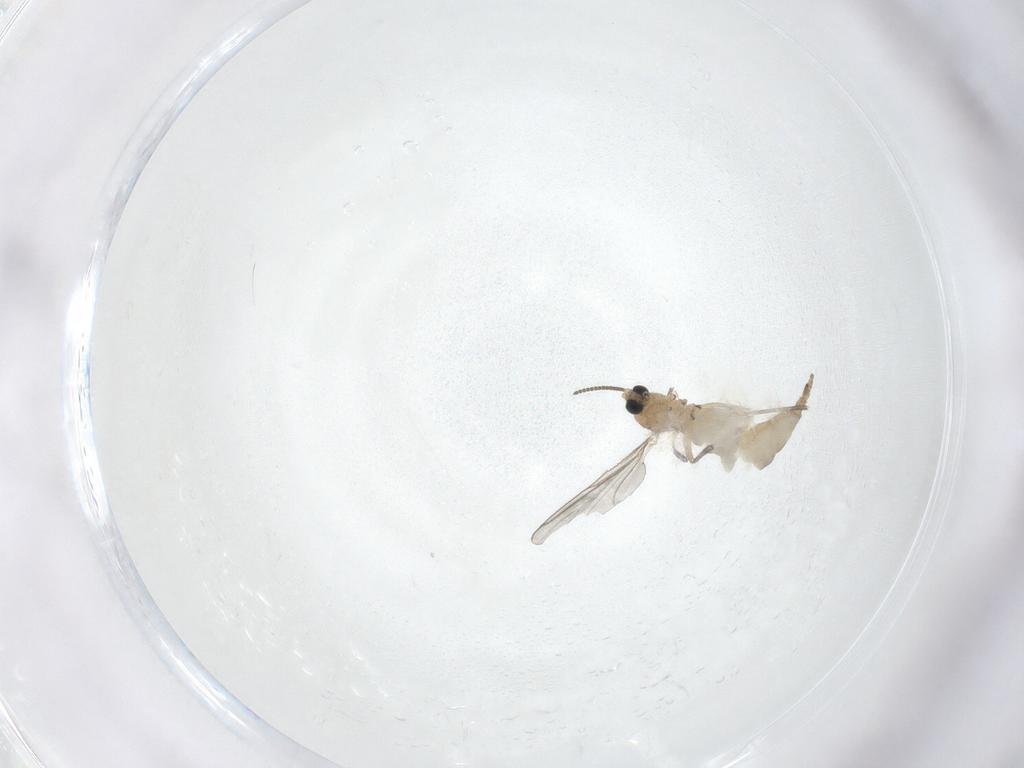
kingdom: Animalia
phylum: Arthropoda
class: Insecta
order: Diptera
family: Sciaridae
